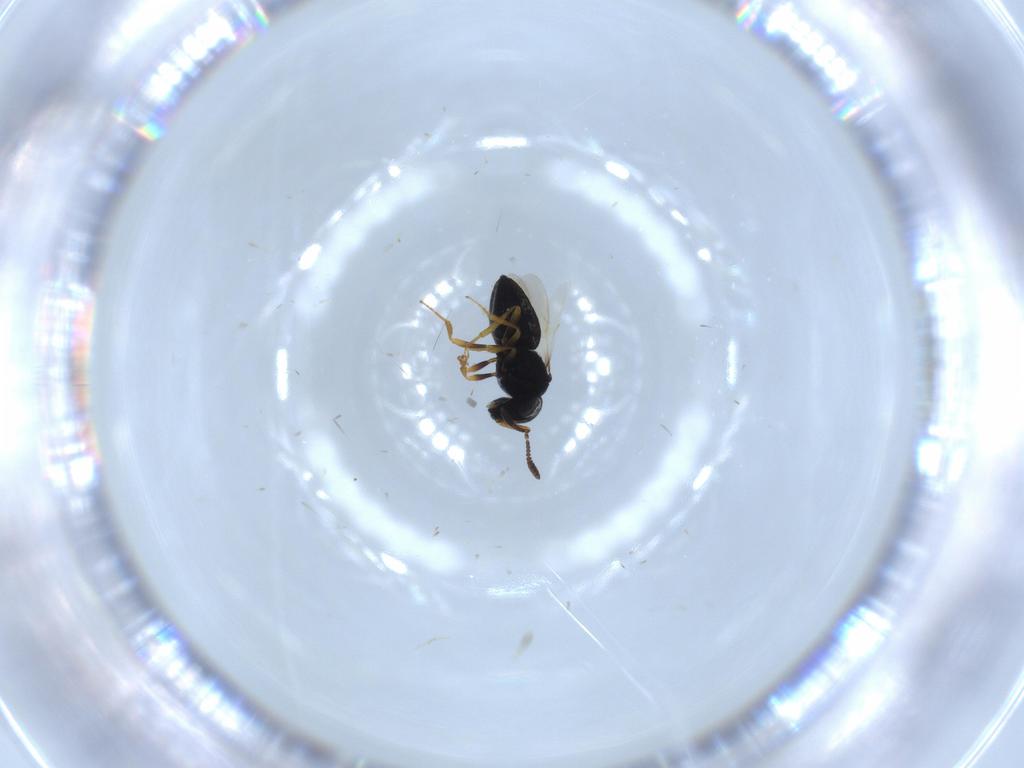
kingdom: Animalia
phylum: Arthropoda
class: Insecta
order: Hymenoptera
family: Scelionidae
